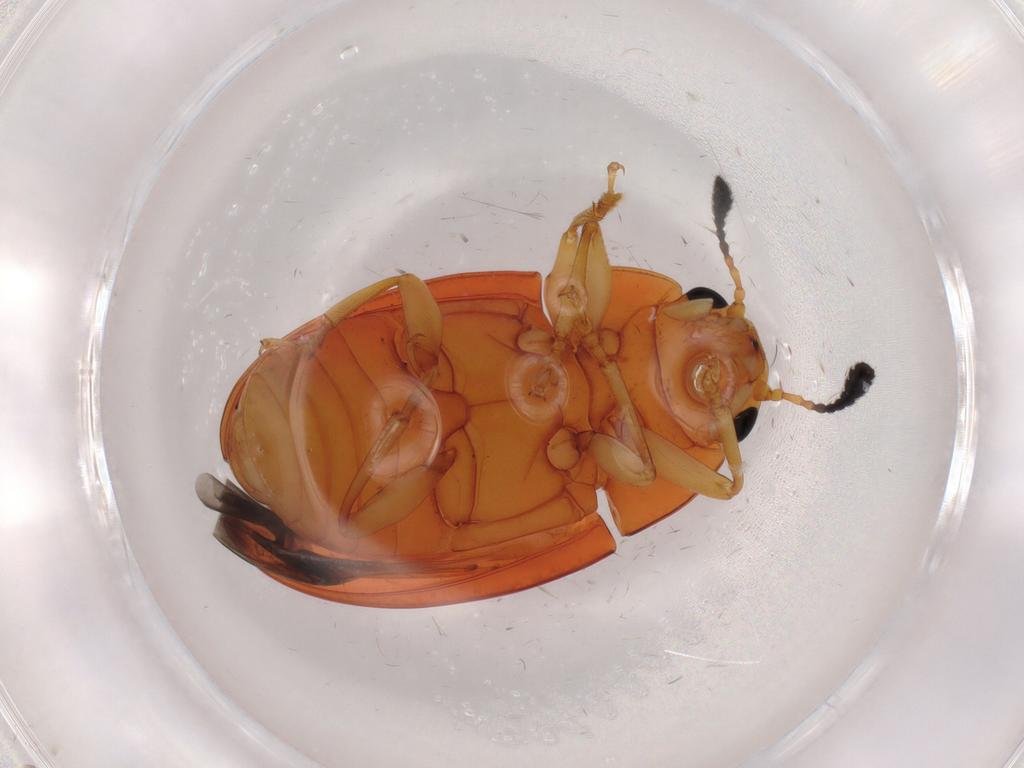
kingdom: Animalia
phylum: Arthropoda
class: Insecta
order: Coleoptera
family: Erotylidae
